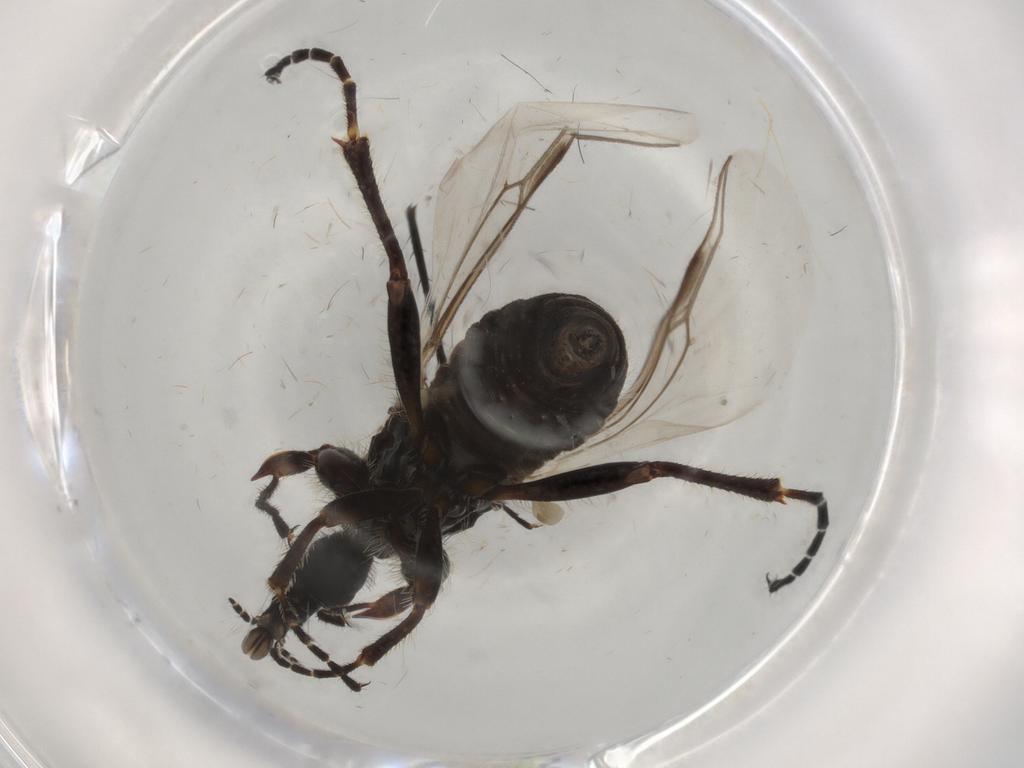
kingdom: Animalia
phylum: Arthropoda
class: Insecta
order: Diptera
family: Bibionidae
